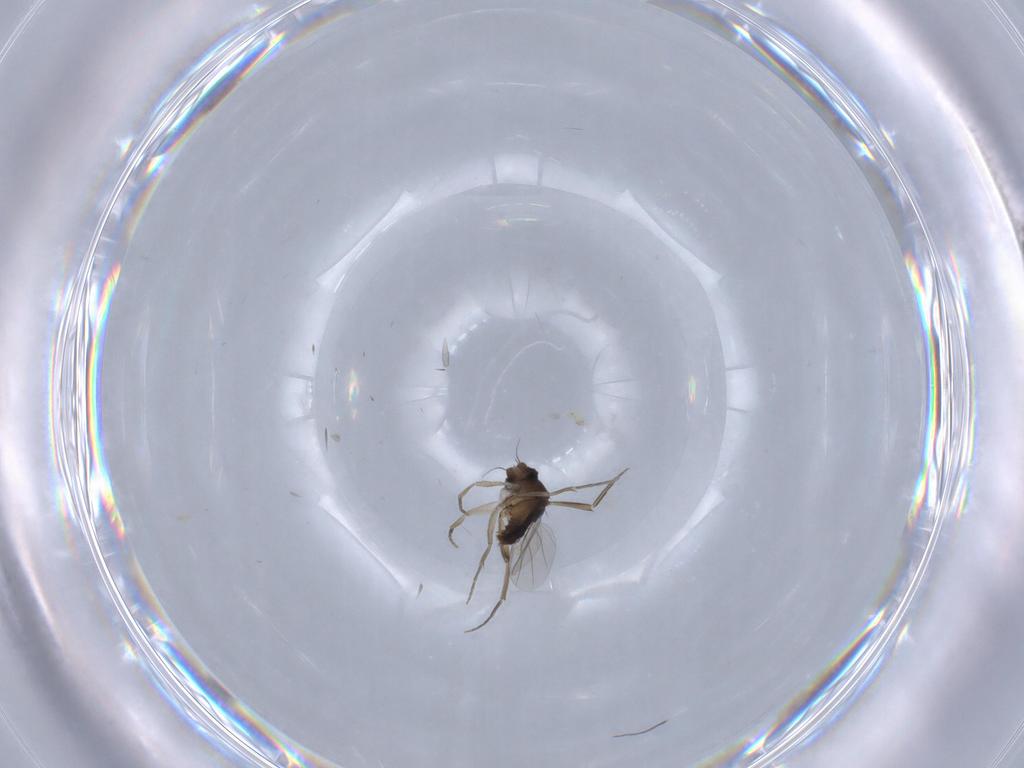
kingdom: Animalia
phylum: Arthropoda
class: Insecta
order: Diptera
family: Limoniidae
